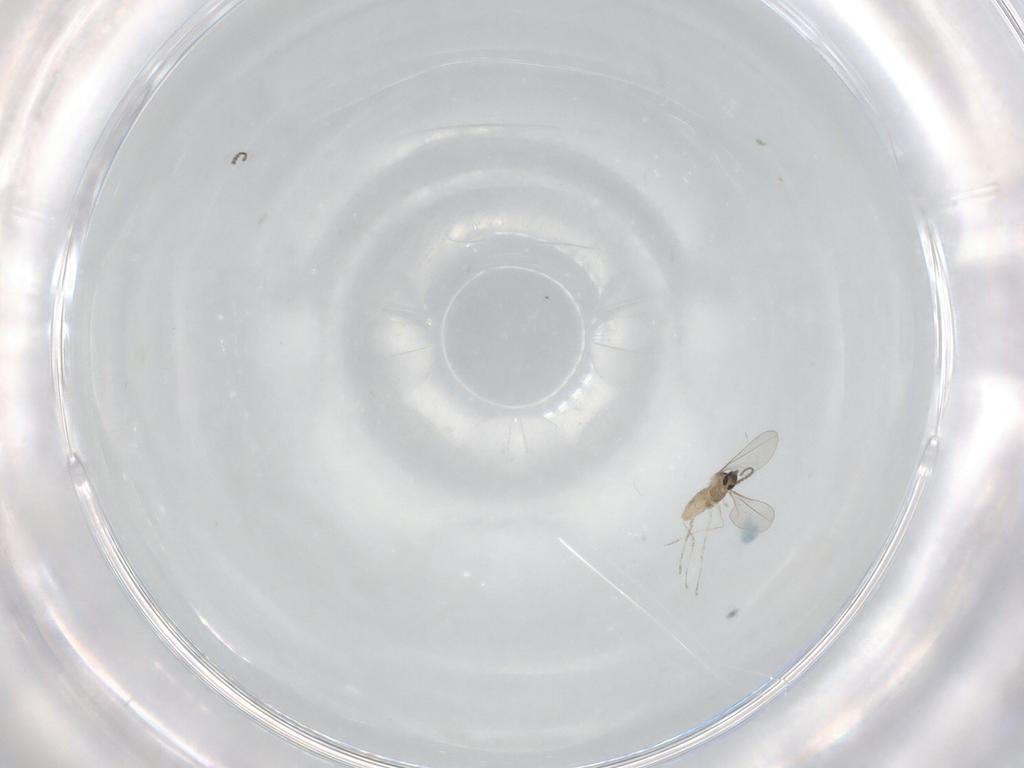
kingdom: Animalia
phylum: Arthropoda
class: Insecta
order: Diptera
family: Cecidomyiidae
